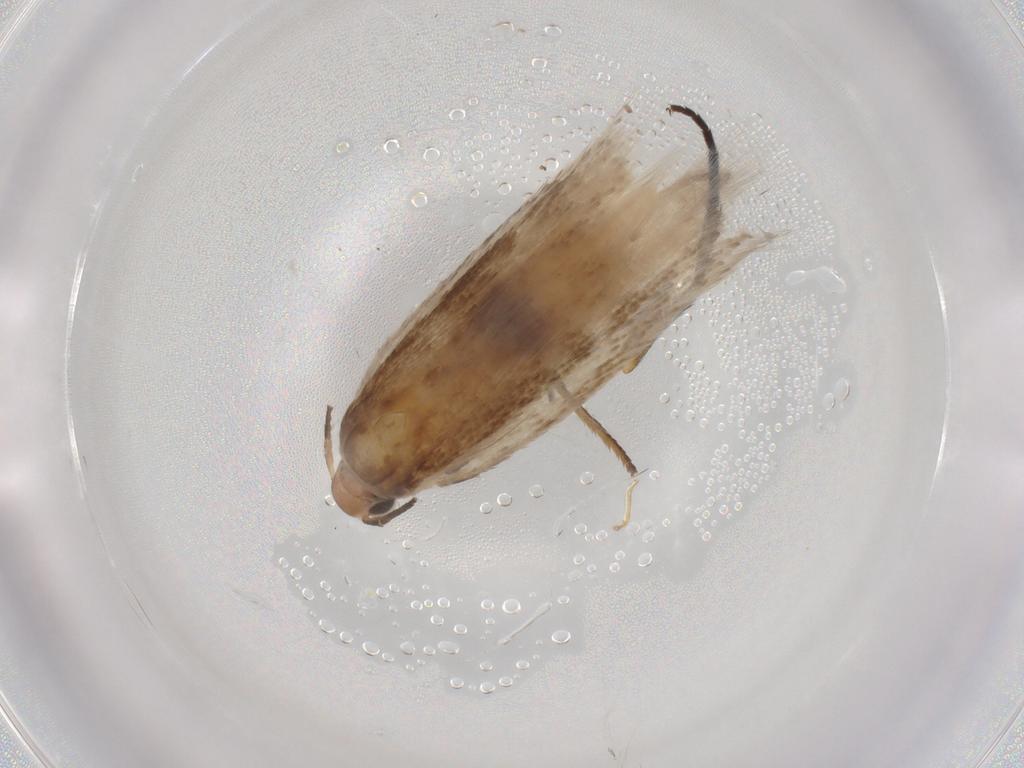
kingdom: Animalia
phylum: Arthropoda
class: Insecta
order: Lepidoptera
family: Gelechiidae
